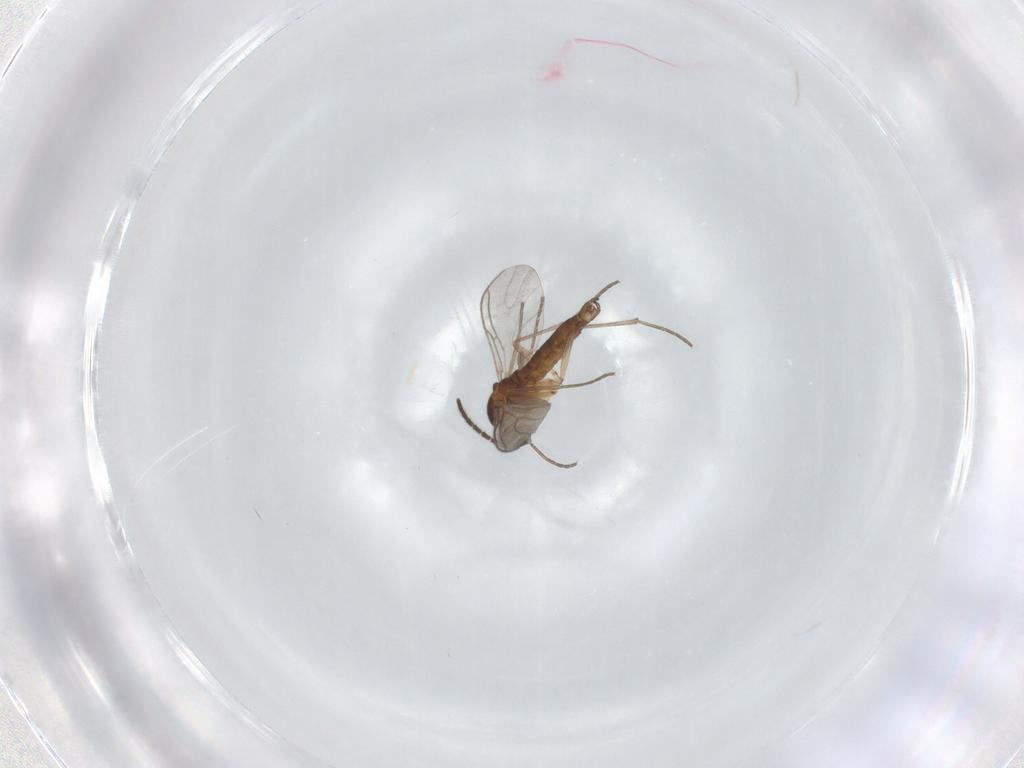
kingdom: Animalia
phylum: Arthropoda
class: Insecta
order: Diptera
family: Sciaridae
